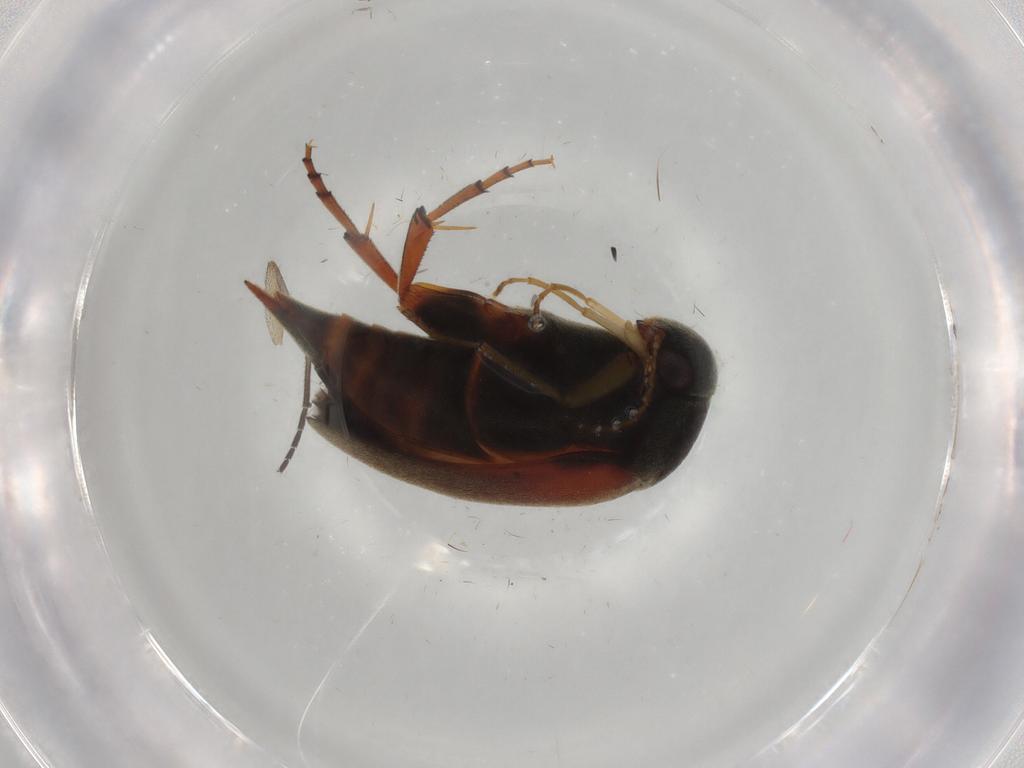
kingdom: Animalia
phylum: Arthropoda
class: Insecta
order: Coleoptera
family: Mordellidae
